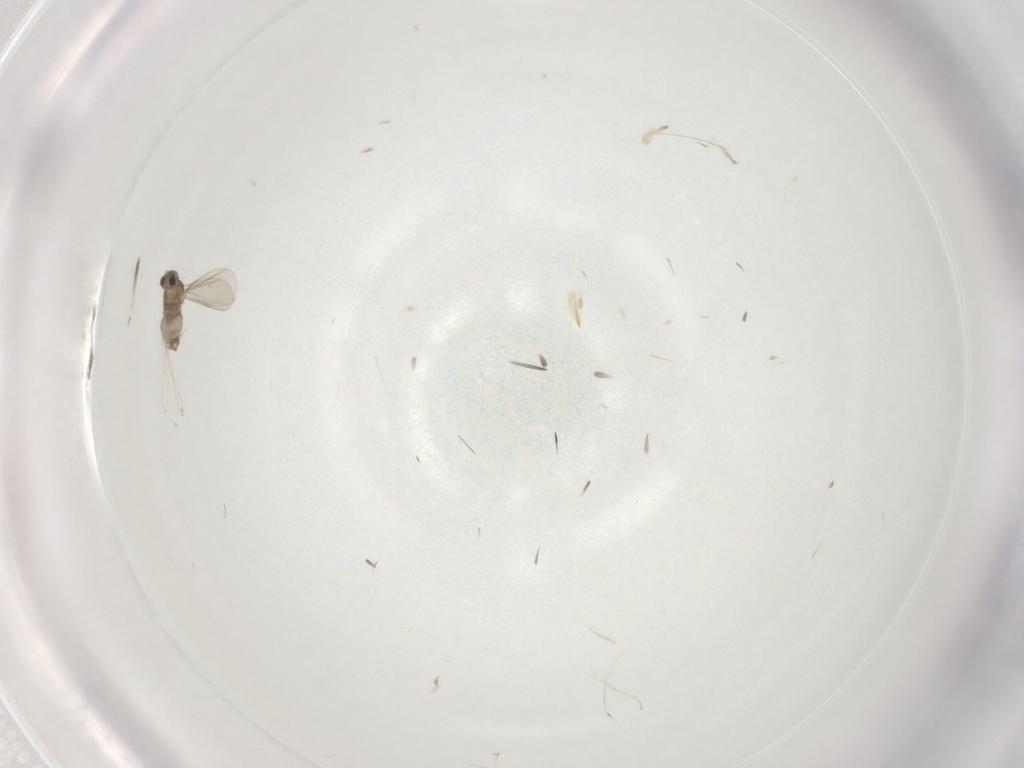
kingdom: Animalia
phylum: Arthropoda
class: Insecta
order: Diptera
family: Cecidomyiidae
